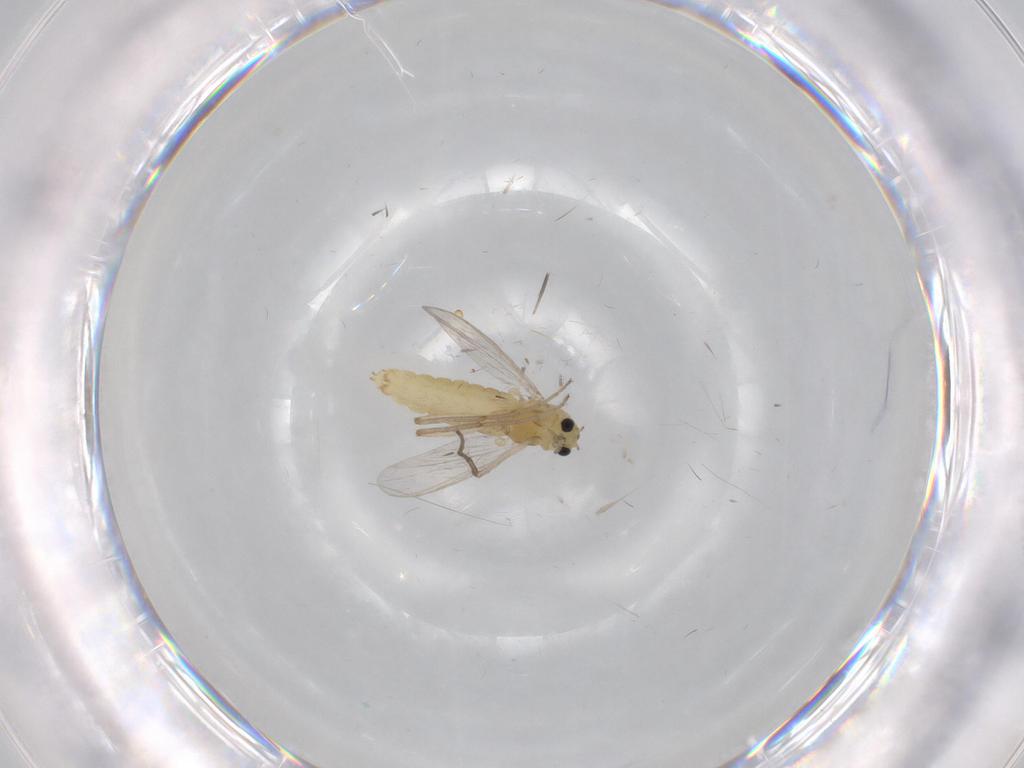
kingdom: Animalia
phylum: Arthropoda
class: Insecta
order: Diptera
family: Chironomidae
